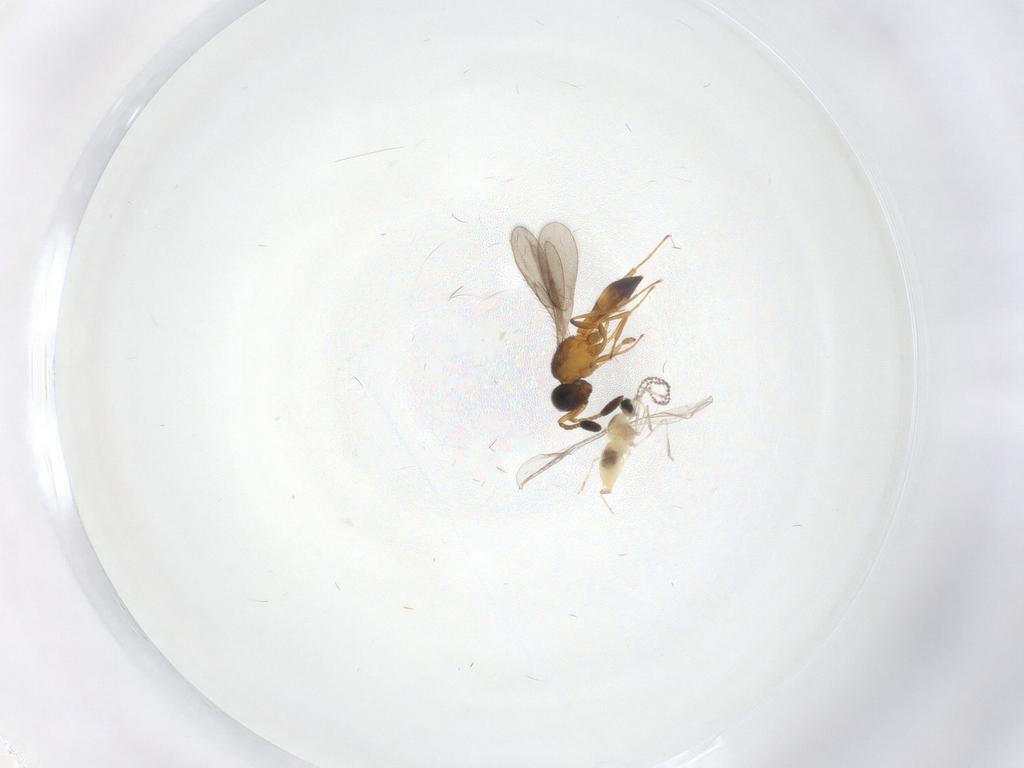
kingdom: Animalia
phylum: Arthropoda
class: Insecta
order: Diptera
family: Cecidomyiidae
